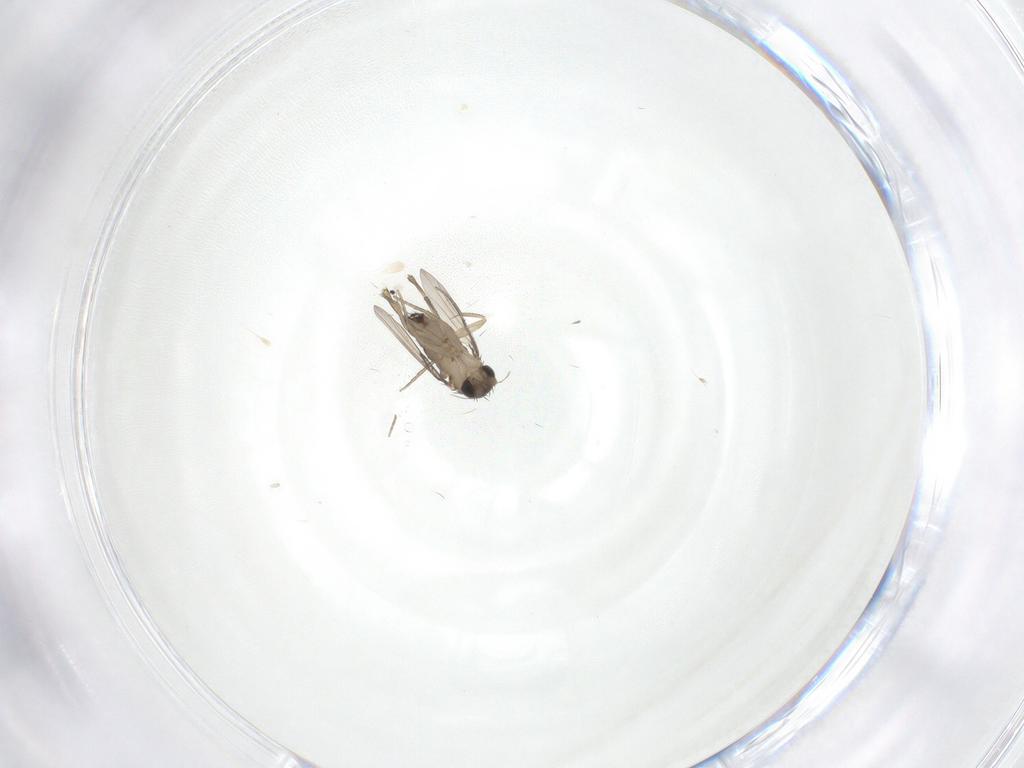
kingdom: Animalia
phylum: Arthropoda
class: Insecta
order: Diptera
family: Phoridae
